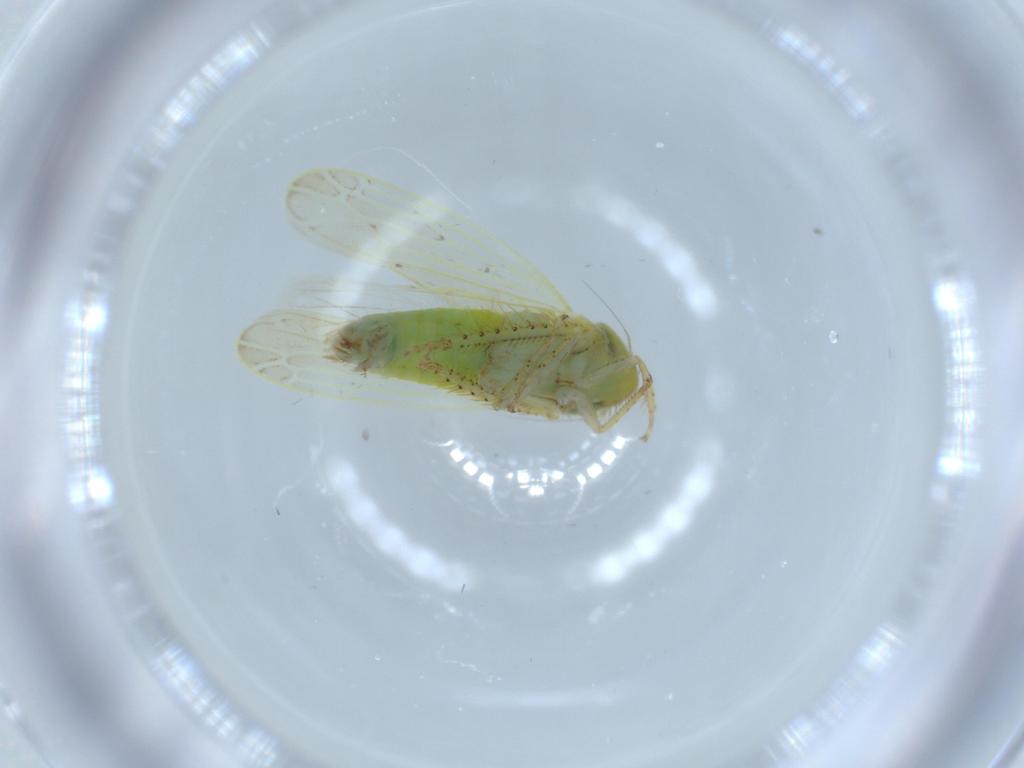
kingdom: Animalia
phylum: Arthropoda
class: Insecta
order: Hemiptera
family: Cicadellidae
